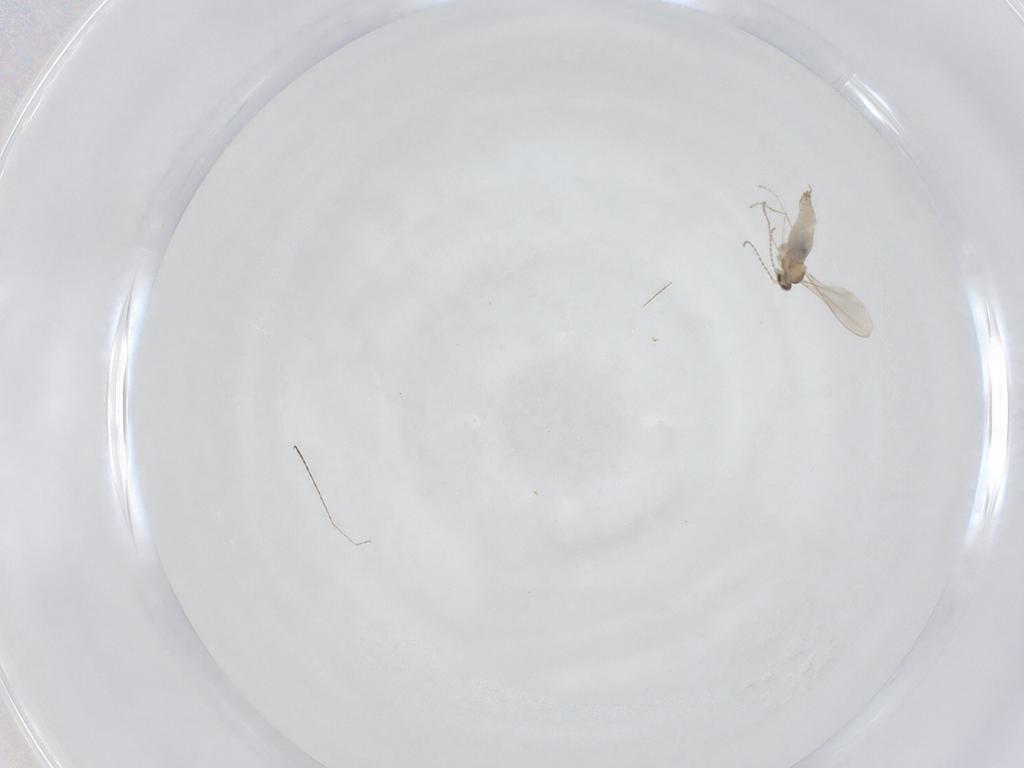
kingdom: Animalia
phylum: Arthropoda
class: Insecta
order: Diptera
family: Cecidomyiidae
